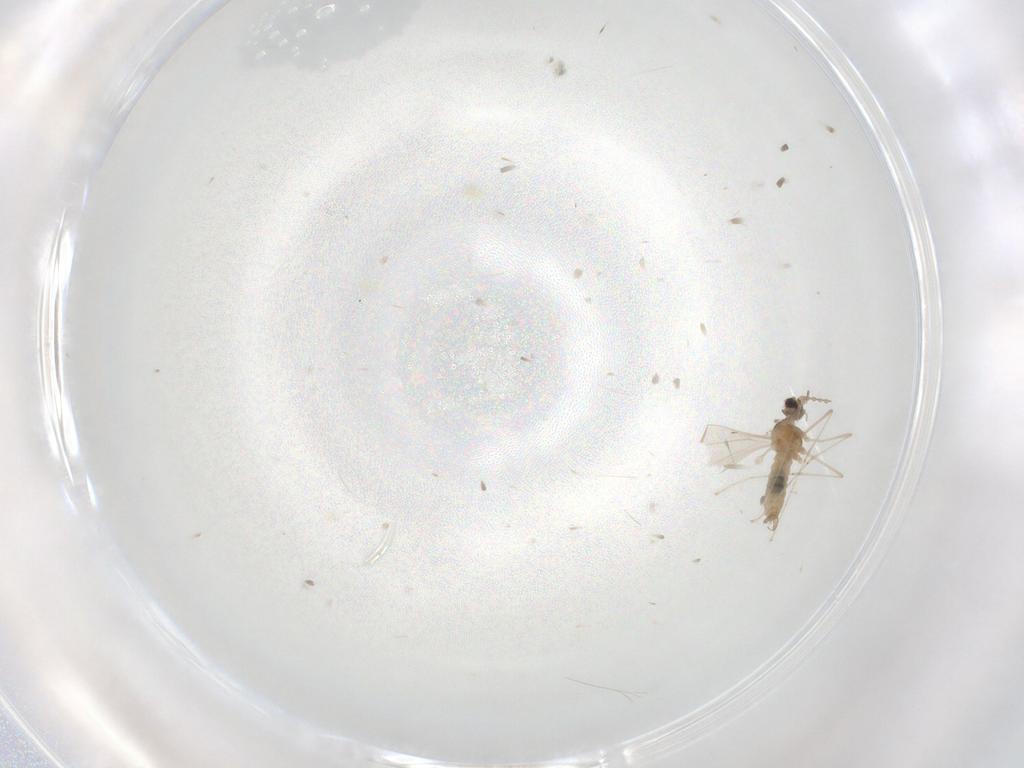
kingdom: Animalia
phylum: Arthropoda
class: Insecta
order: Diptera
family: Cecidomyiidae
